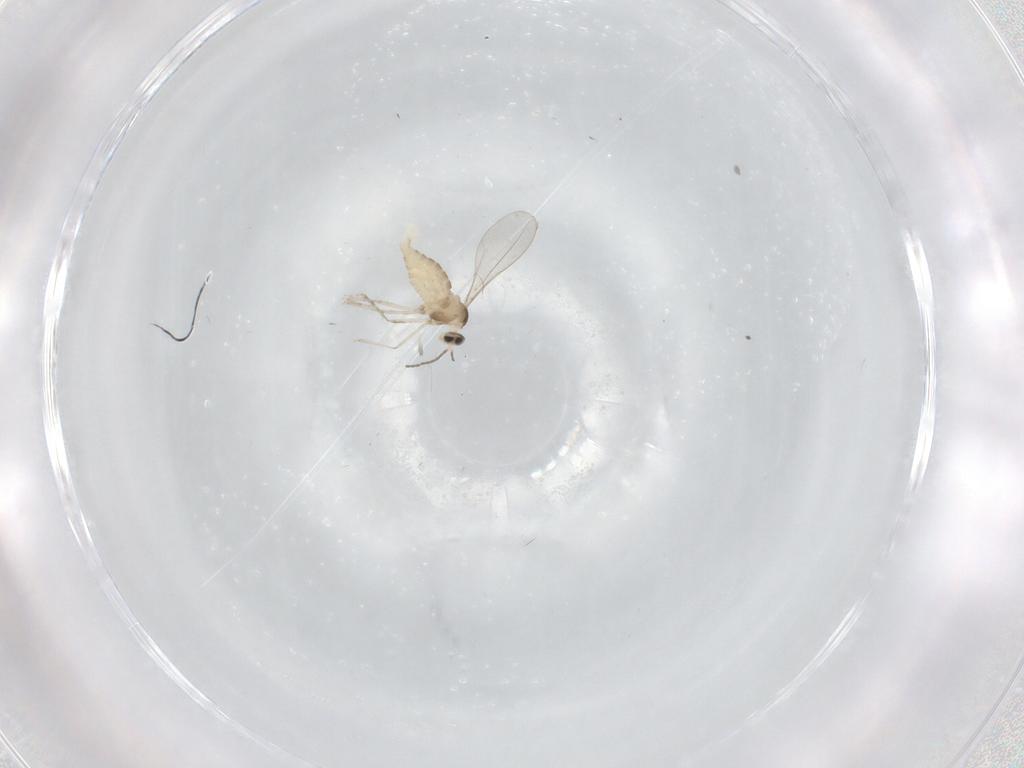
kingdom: Animalia
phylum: Arthropoda
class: Insecta
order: Diptera
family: Cecidomyiidae
